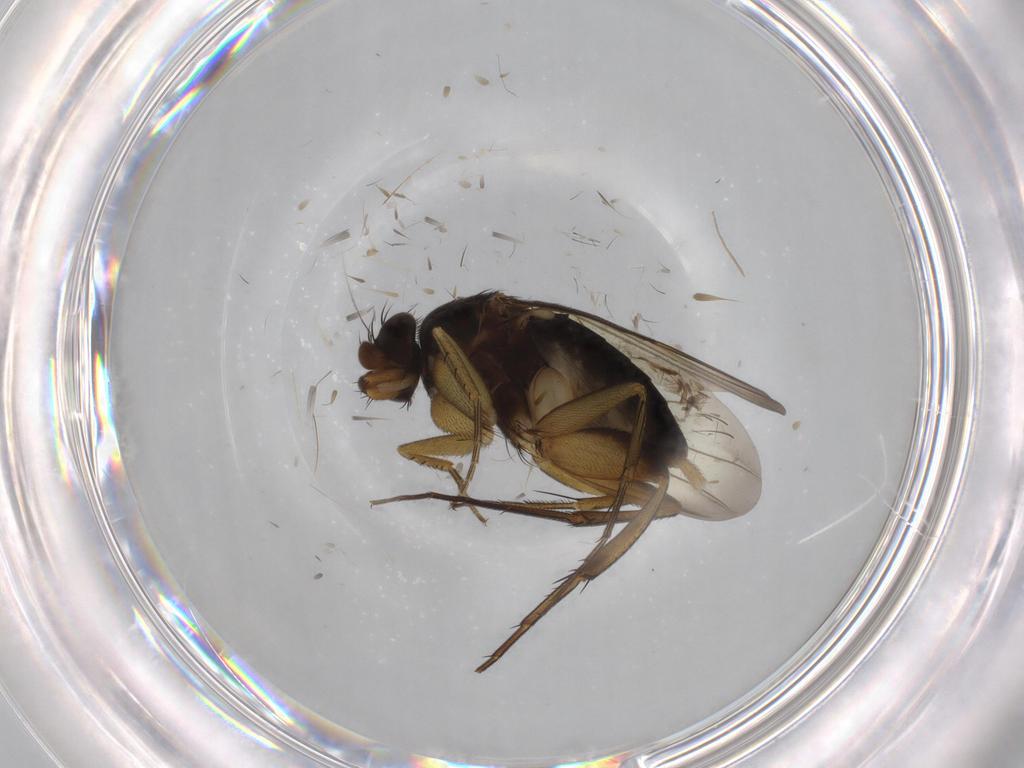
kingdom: Animalia
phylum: Arthropoda
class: Insecta
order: Diptera
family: Phoridae
